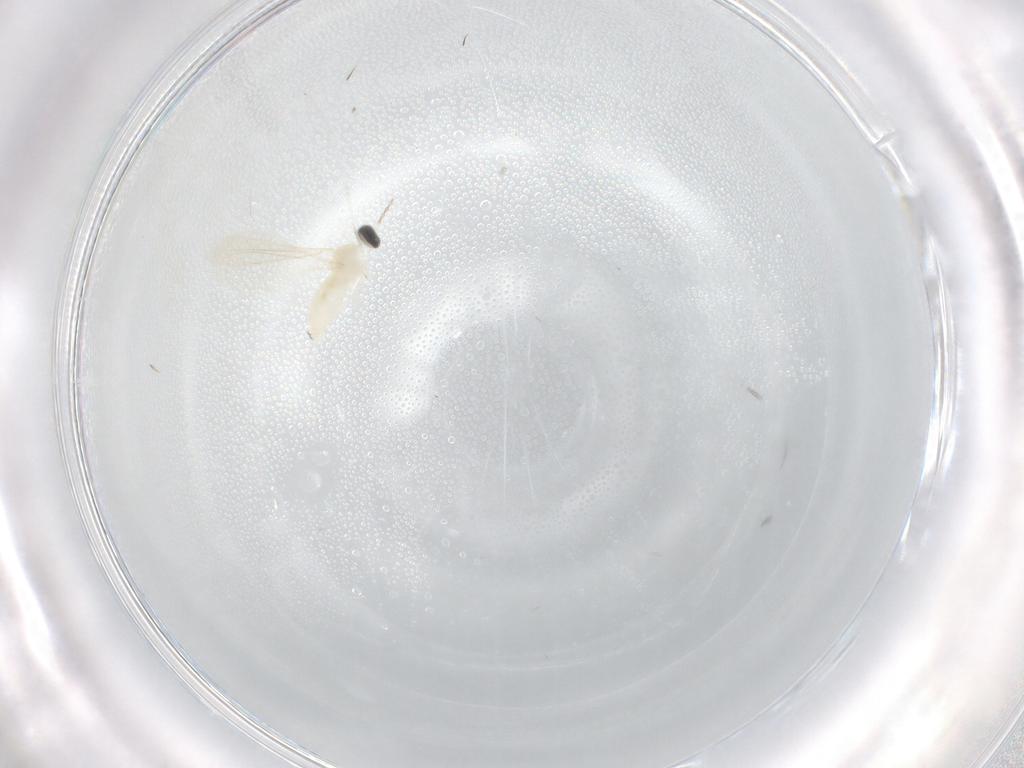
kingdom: Animalia
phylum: Arthropoda
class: Insecta
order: Diptera
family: Cecidomyiidae
